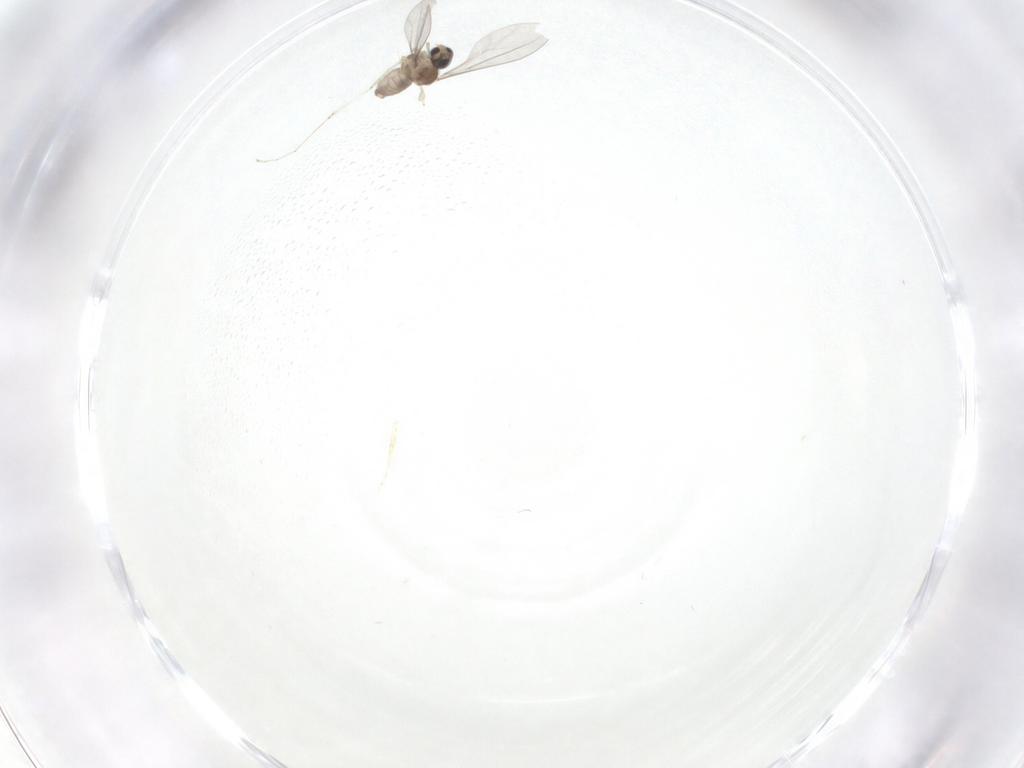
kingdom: Animalia
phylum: Arthropoda
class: Insecta
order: Diptera
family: Cecidomyiidae
